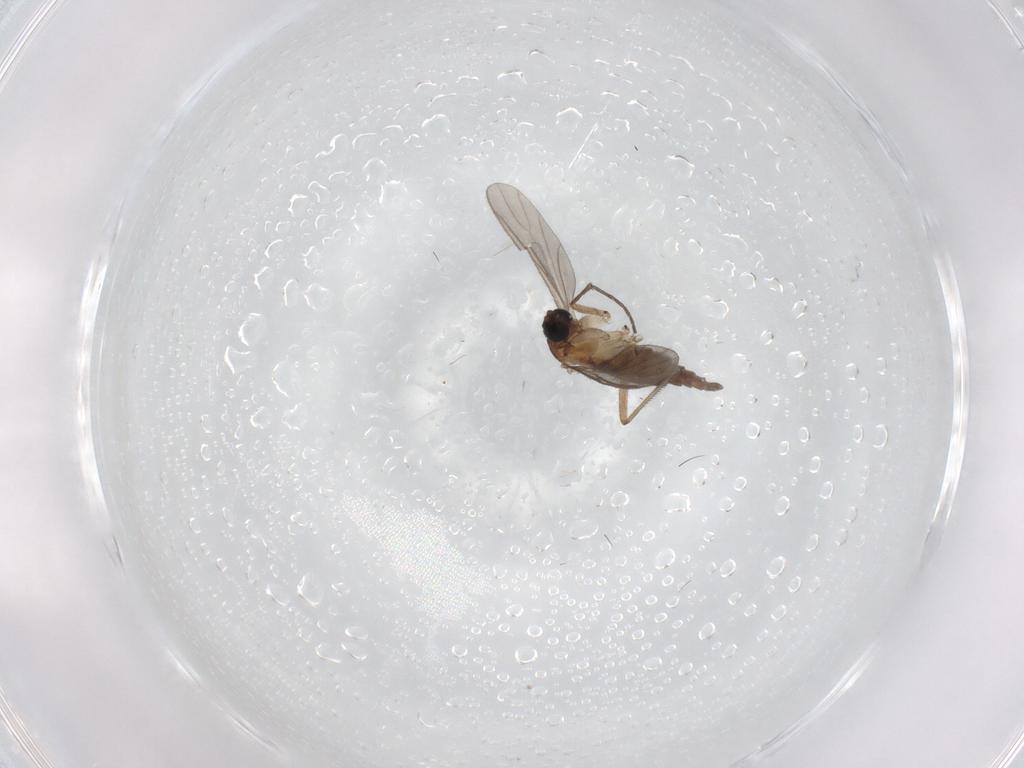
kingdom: Animalia
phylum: Arthropoda
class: Insecta
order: Diptera
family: Sciaridae
